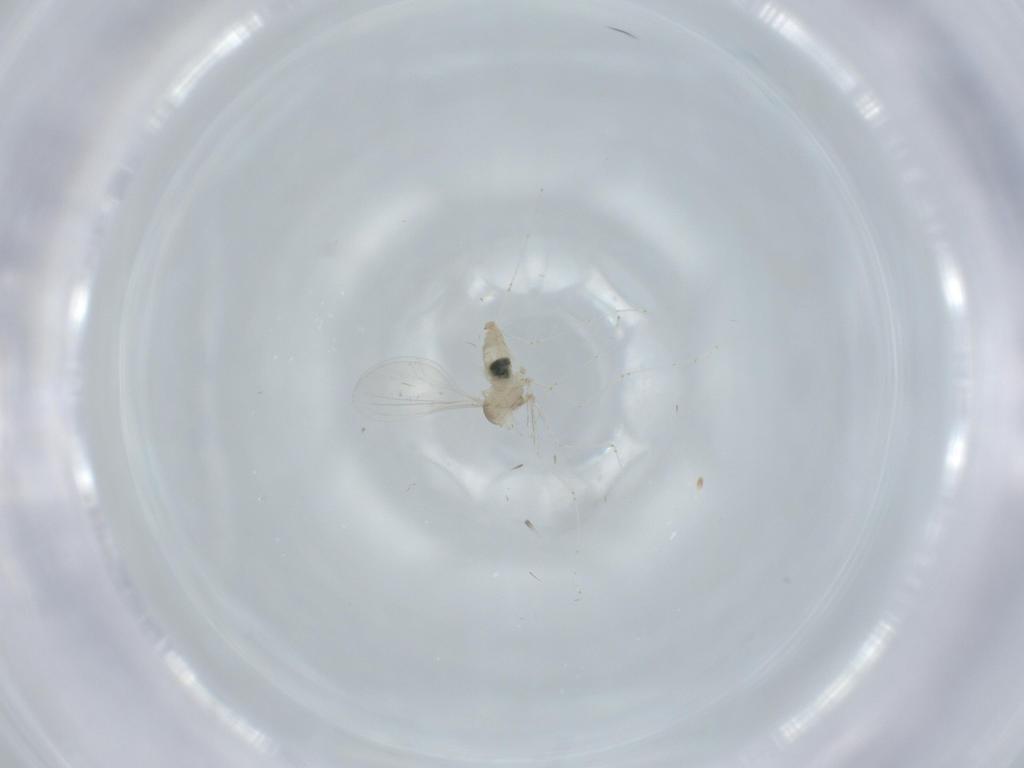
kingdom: Animalia
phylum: Arthropoda
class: Insecta
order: Diptera
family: Cecidomyiidae
